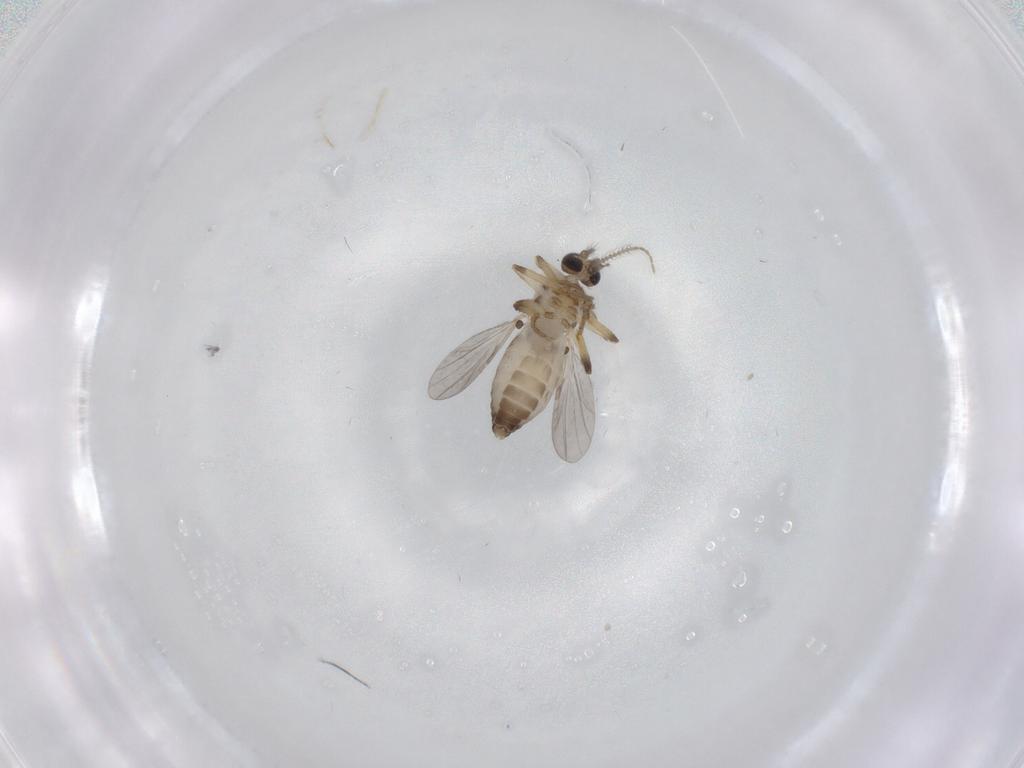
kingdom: Animalia
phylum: Arthropoda
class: Insecta
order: Diptera
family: Ceratopogonidae
